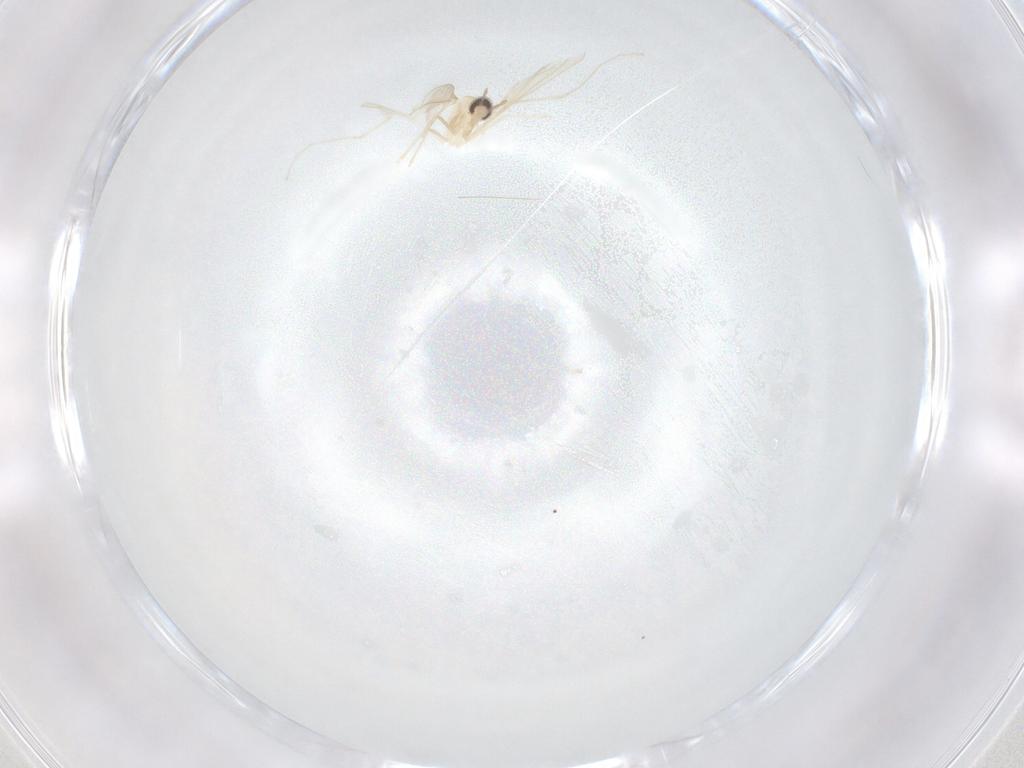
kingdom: Animalia
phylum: Arthropoda
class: Insecta
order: Diptera
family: Cecidomyiidae
